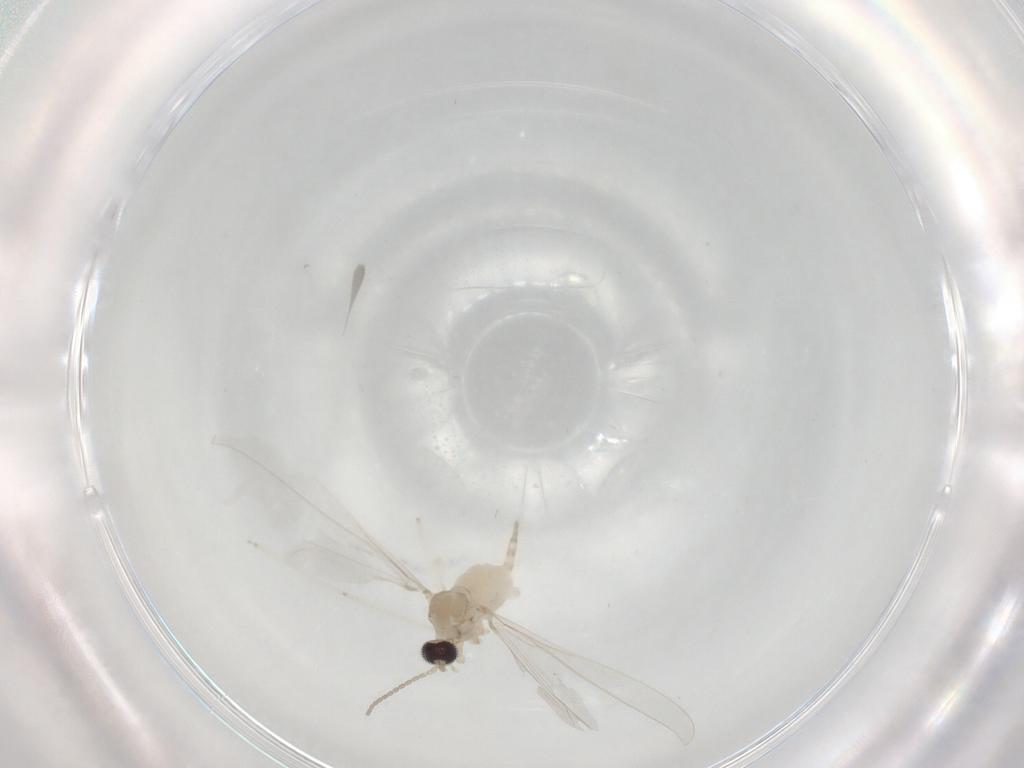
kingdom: Animalia
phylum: Arthropoda
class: Insecta
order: Diptera
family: Cecidomyiidae
